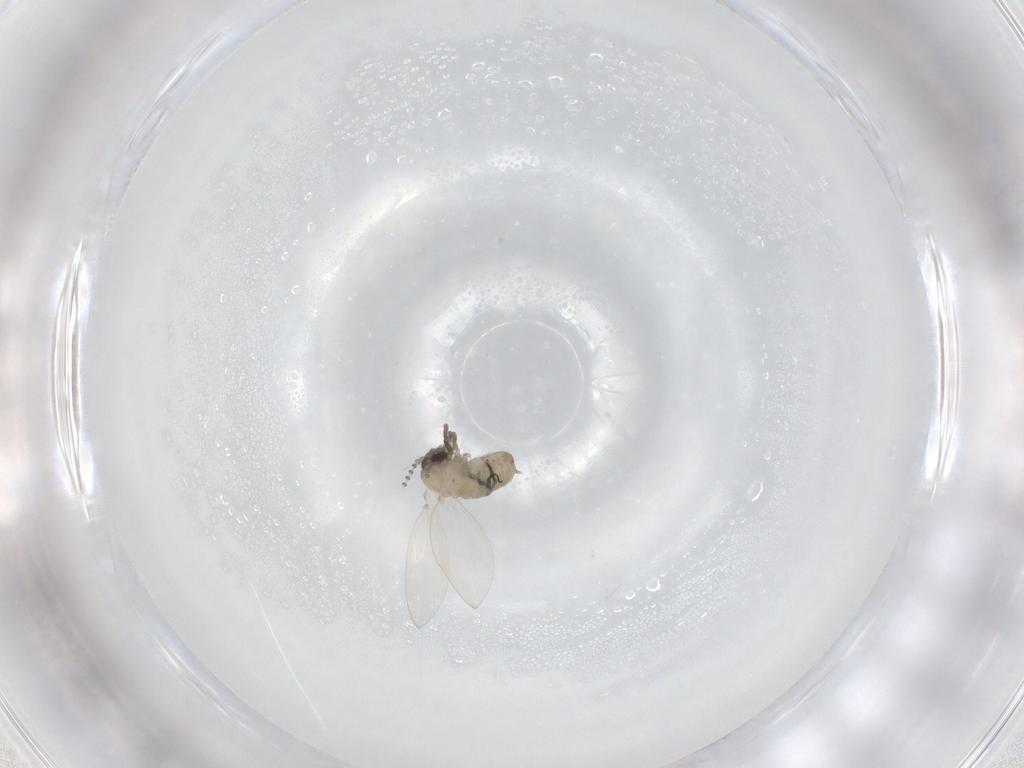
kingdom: Animalia
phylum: Arthropoda
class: Insecta
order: Diptera
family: Psychodidae
